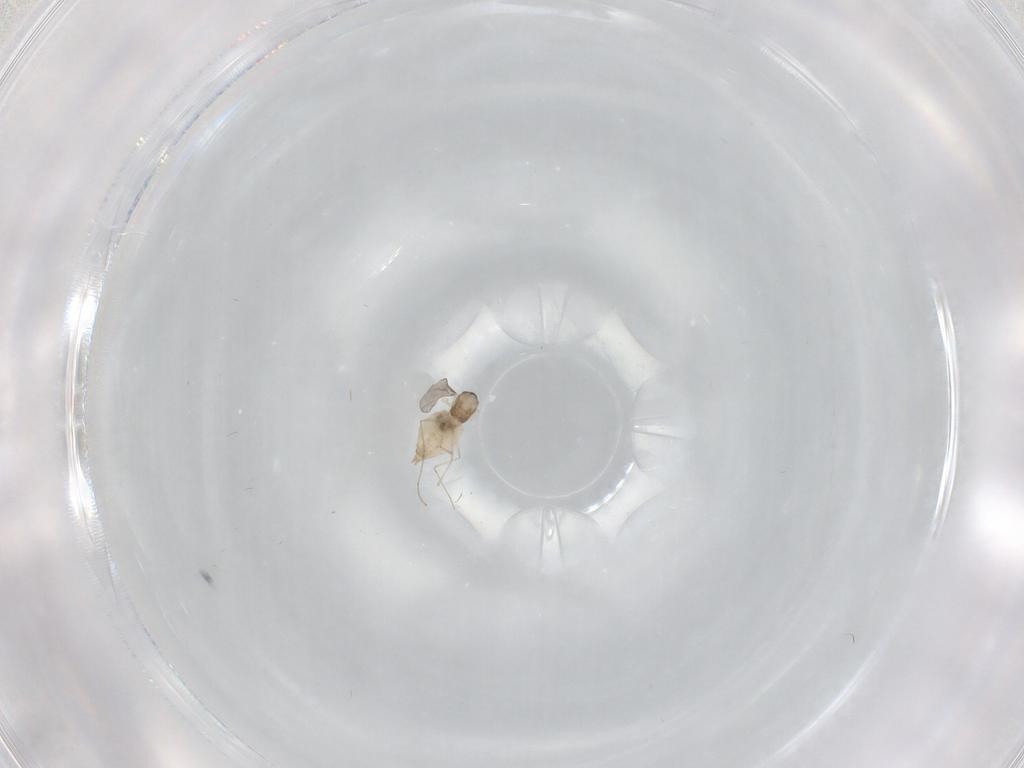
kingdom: Animalia
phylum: Arthropoda
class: Insecta
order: Diptera
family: Cecidomyiidae
